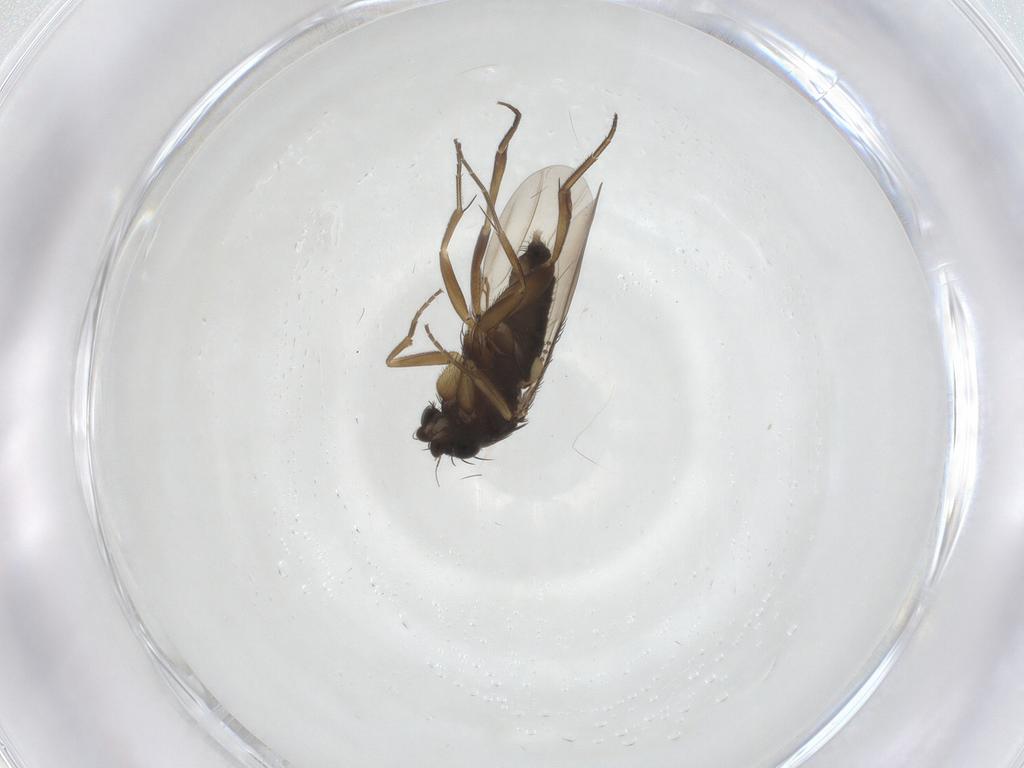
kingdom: Animalia
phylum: Arthropoda
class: Insecta
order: Diptera
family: Phoridae
